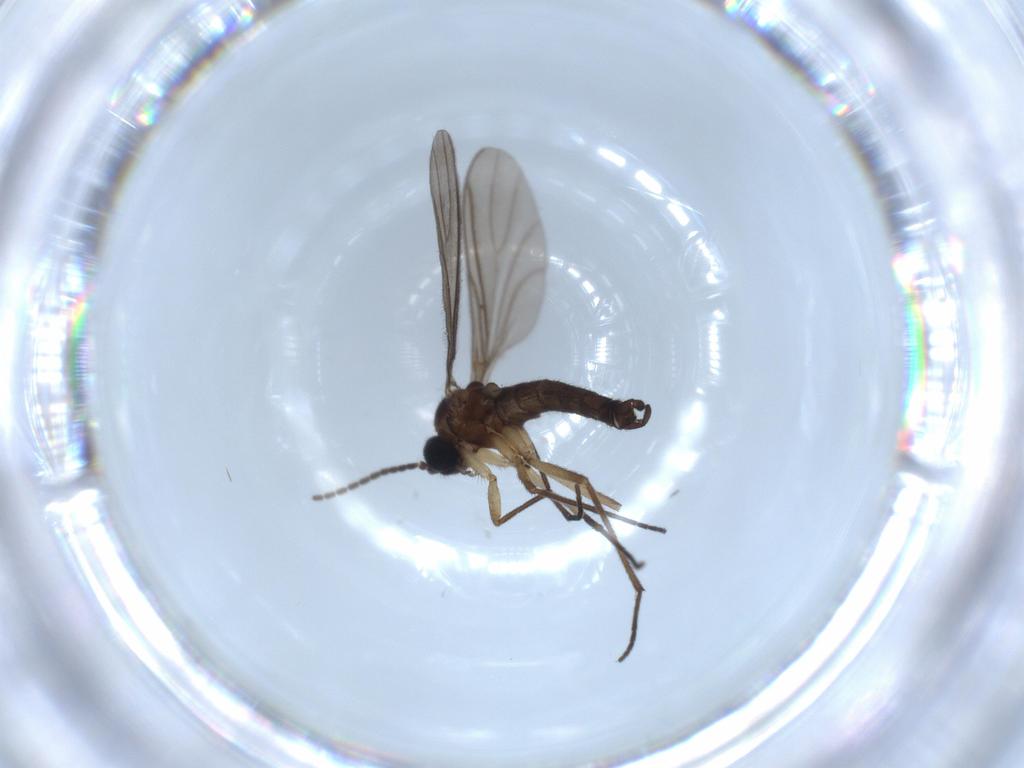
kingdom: Animalia
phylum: Arthropoda
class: Insecta
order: Diptera
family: Sciaridae
